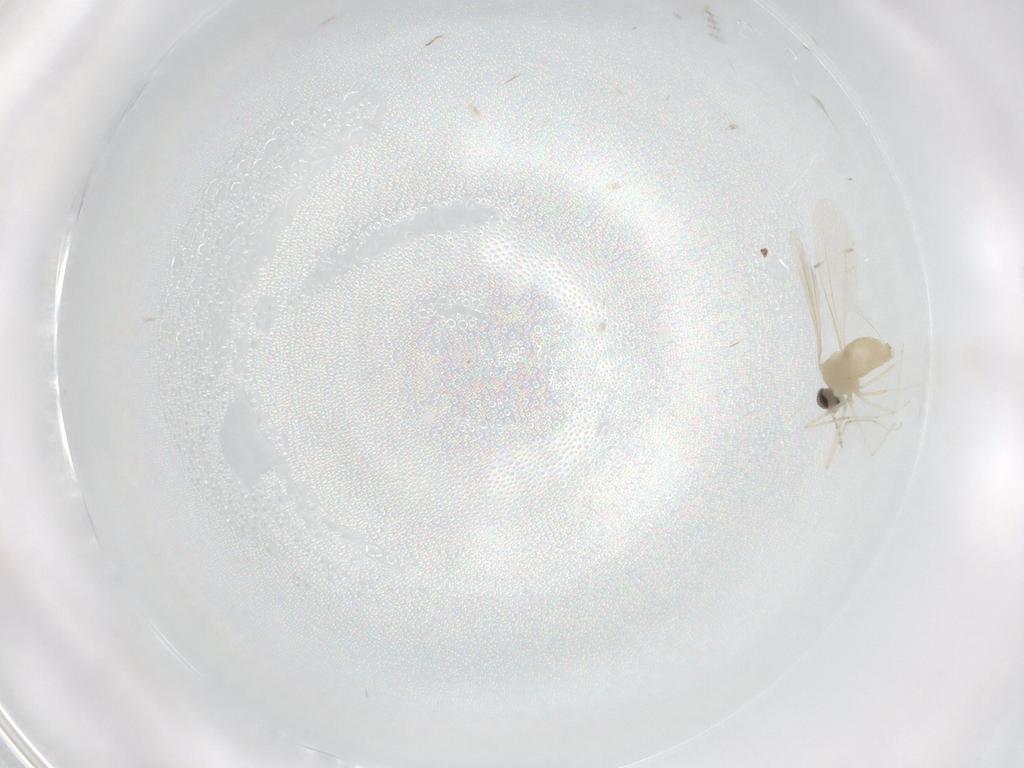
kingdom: Animalia
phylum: Arthropoda
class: Insecta
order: Diptera
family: Cecidomyiidae
